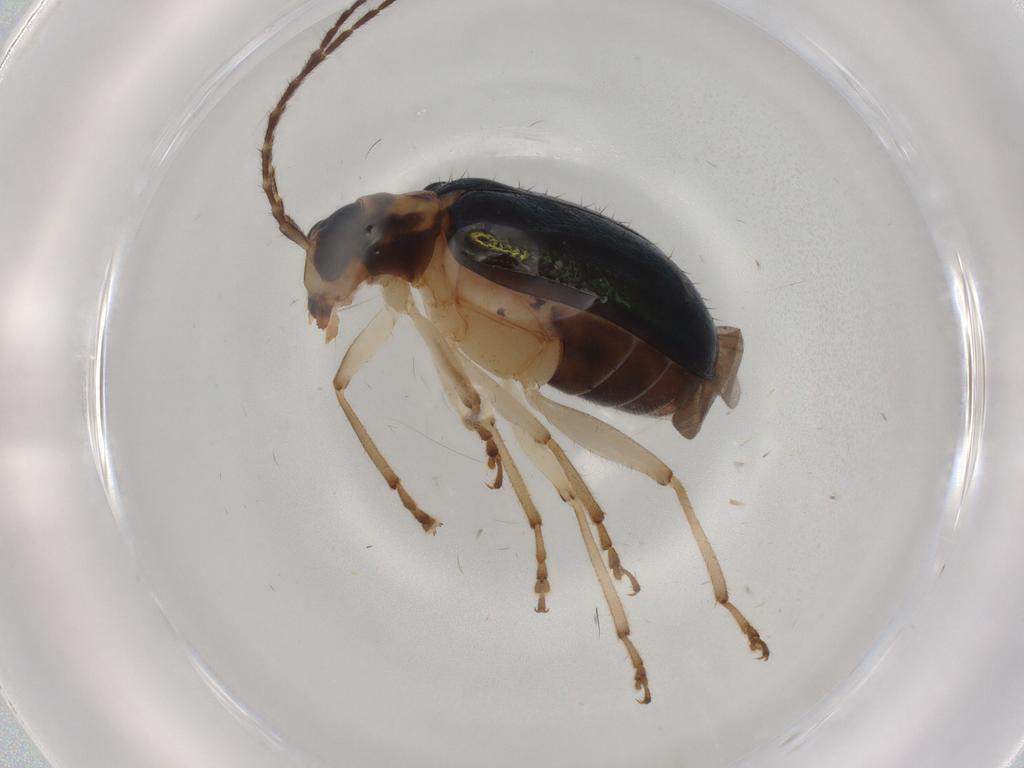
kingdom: Animalia
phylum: Arthropoda
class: Insecta
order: Coleoptera
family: Chrysomelidae
